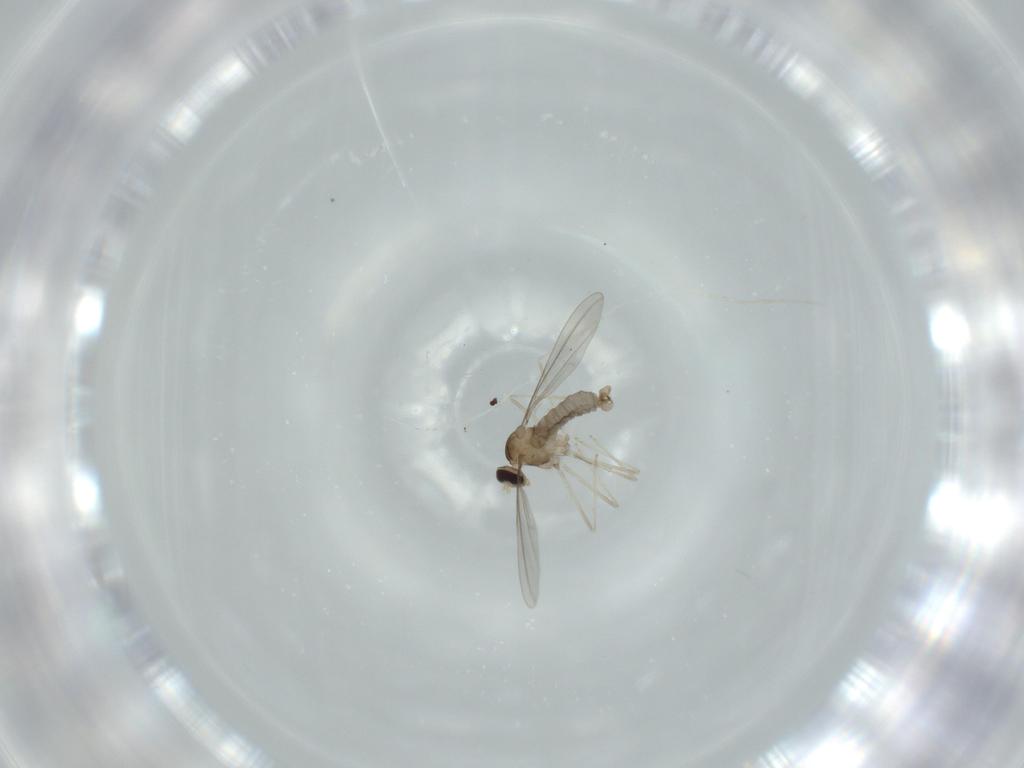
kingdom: Animalia
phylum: Arthropoda
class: Insecta
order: Diptera
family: Cecidomyiidae
